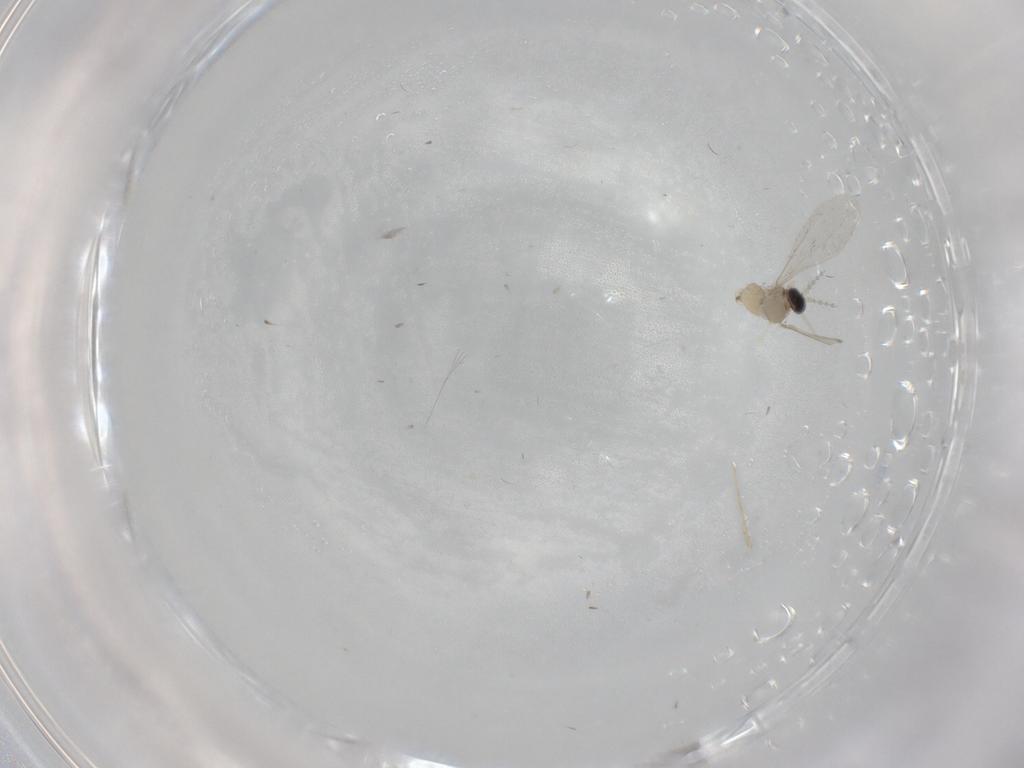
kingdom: Animalia
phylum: Arthropoda
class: Insecta
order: Diptera
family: Cecidomyiidae
